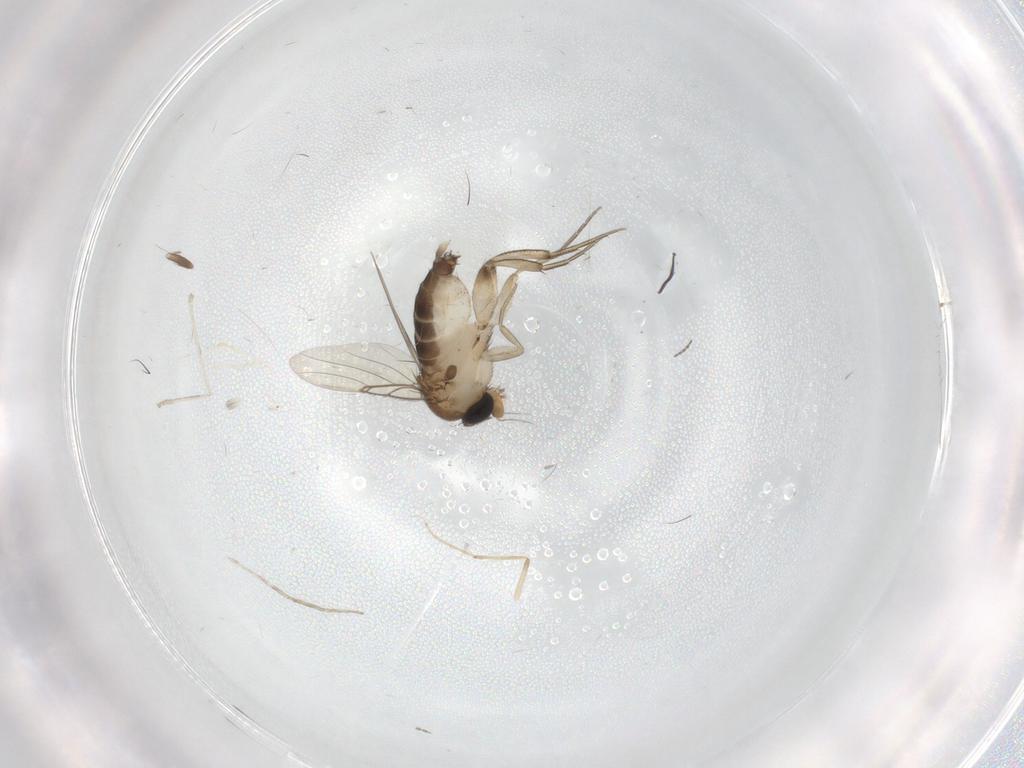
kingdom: Animalia
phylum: Arthropoda
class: Insecta
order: Diptera
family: Phoridae
